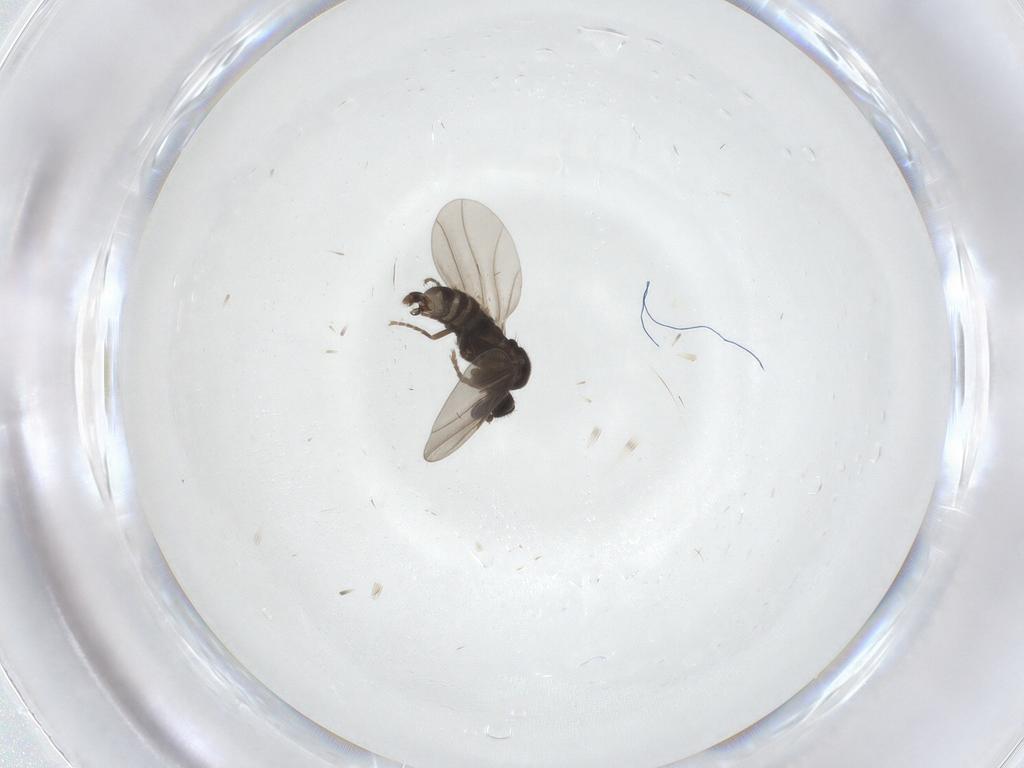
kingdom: Animalia
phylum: Arthropoda
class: Insecta
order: Diptera
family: Sciaridae
